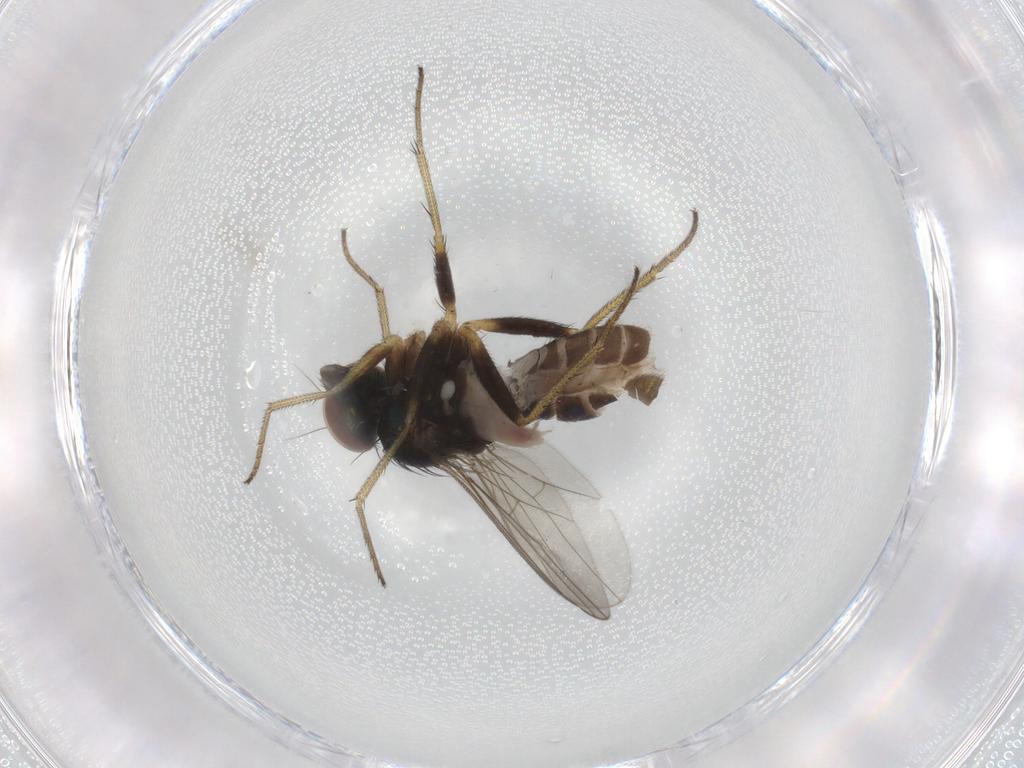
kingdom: Animalia
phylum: Arthropoda
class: Insecta
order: Diptera
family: Dolichopodidae
